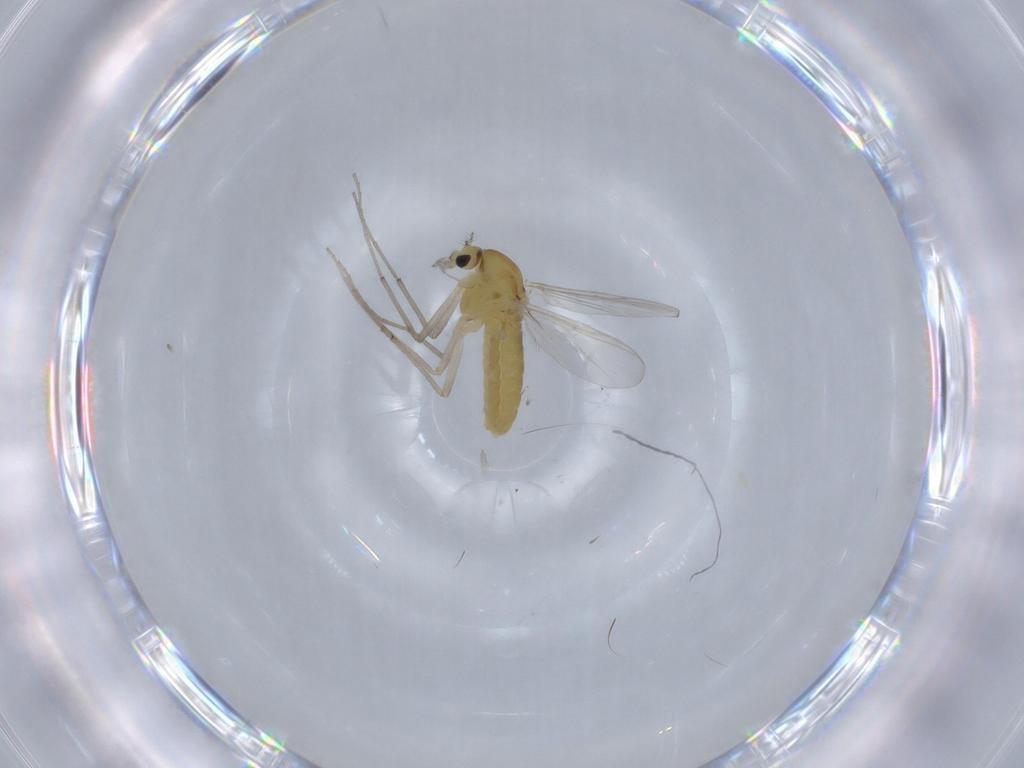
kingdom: Animalia
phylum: Arthropoda
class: Insecta
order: Diptera
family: Chironomidae
